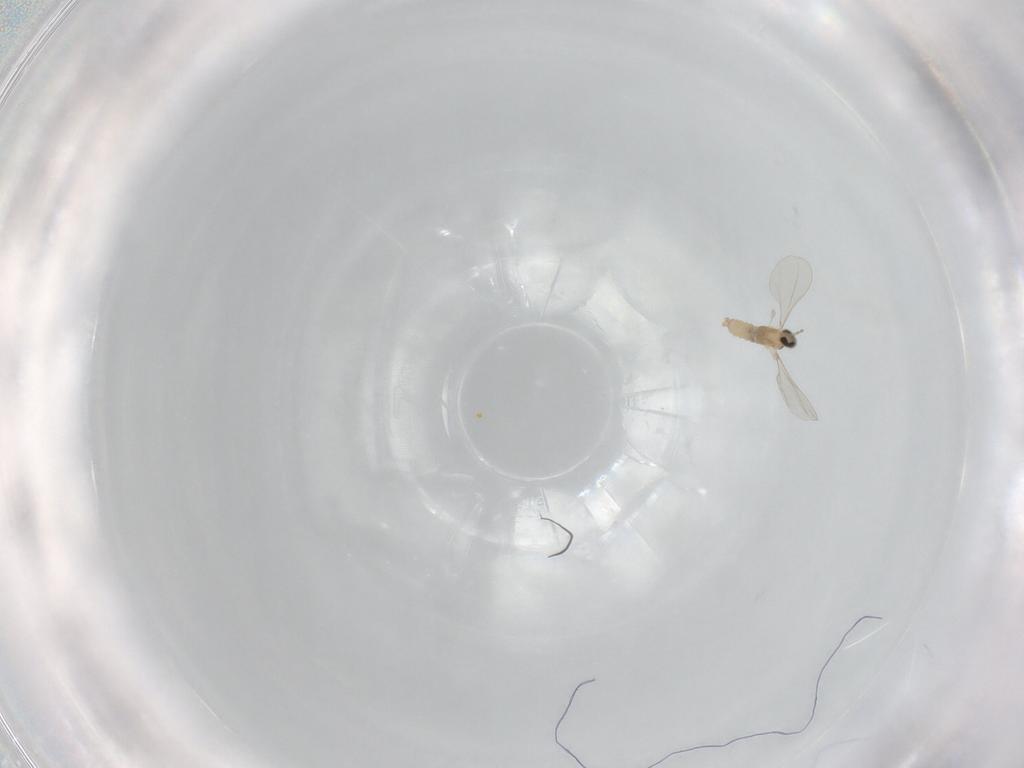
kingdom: Animalia
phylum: Arthropoda
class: Insecta
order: Diptera
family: Cecidomyiidae
